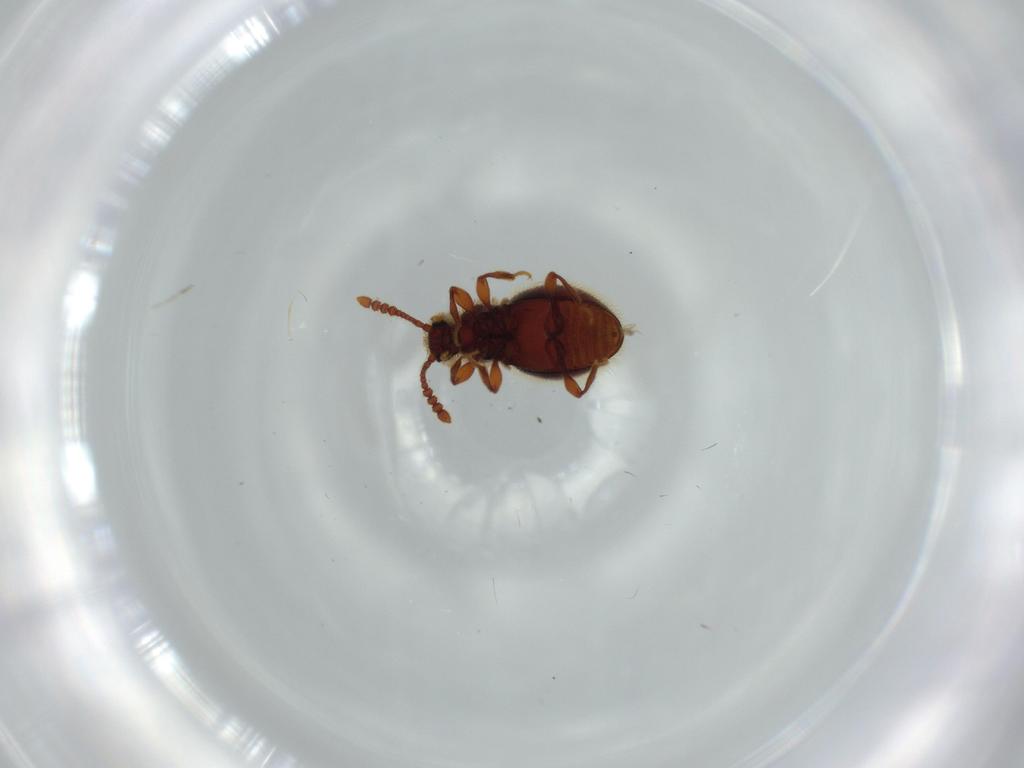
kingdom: Animalia
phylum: Arthropoda
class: Insecta
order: Coleoptera
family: Staphylinidae
